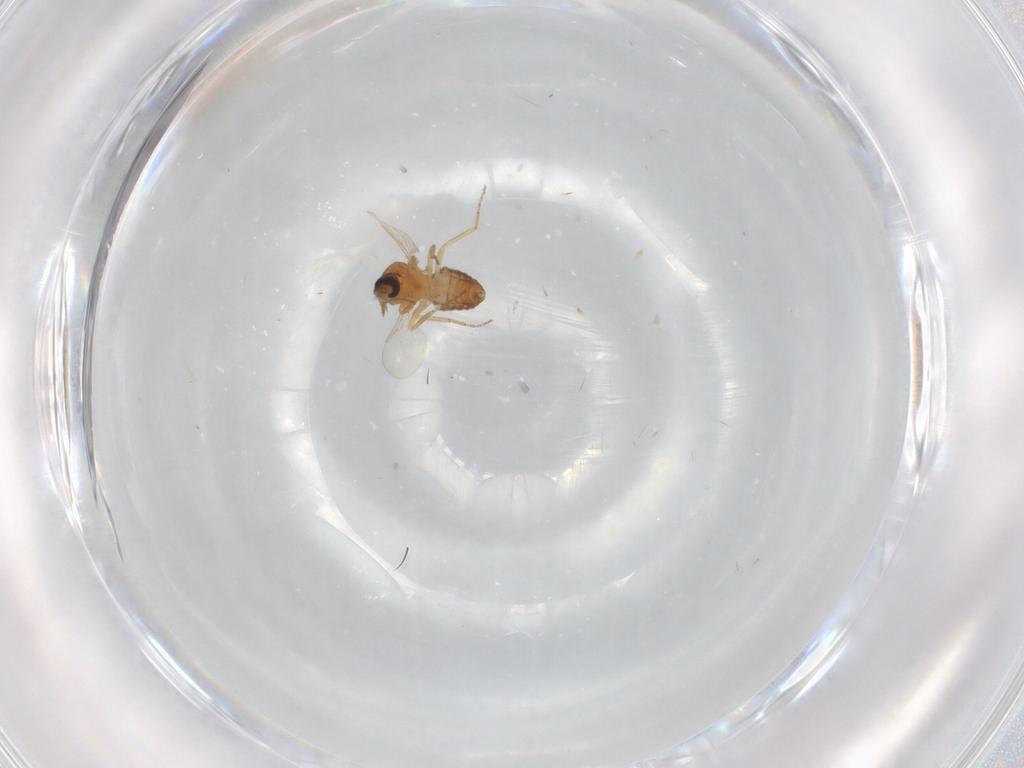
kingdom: Animalia
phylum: Arthropoda
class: Insecta
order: Diptera
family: Ceratopogonidae
